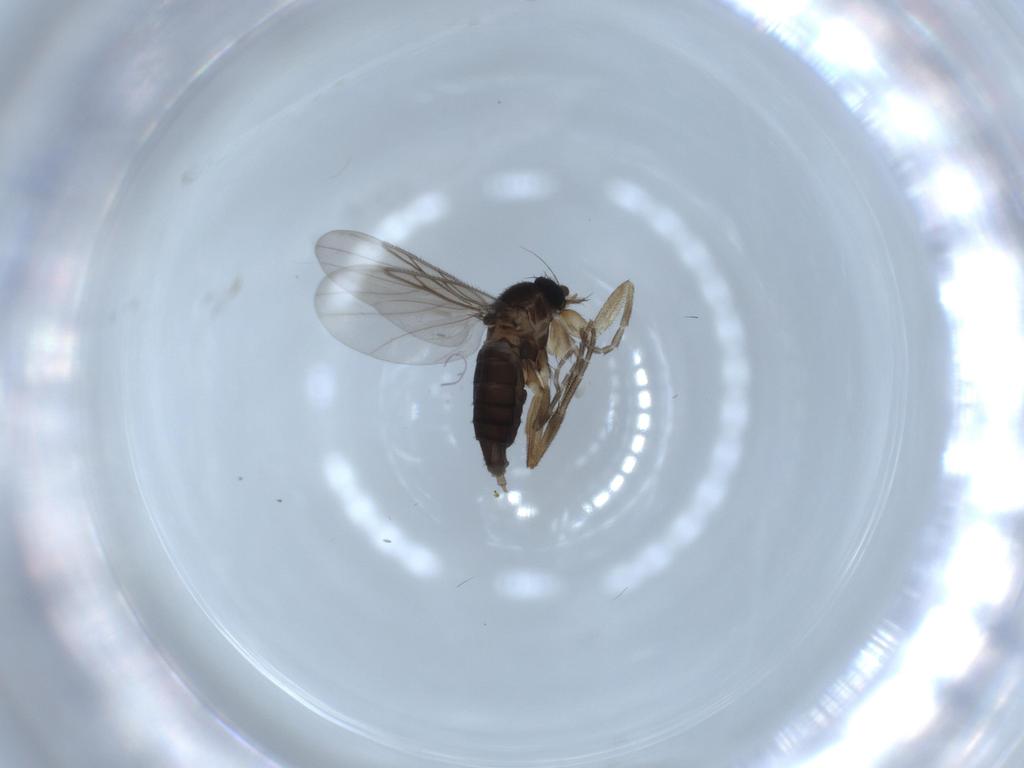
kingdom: Animalia
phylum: Arthropoda
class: Insecta
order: Diptera
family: Phoridae
